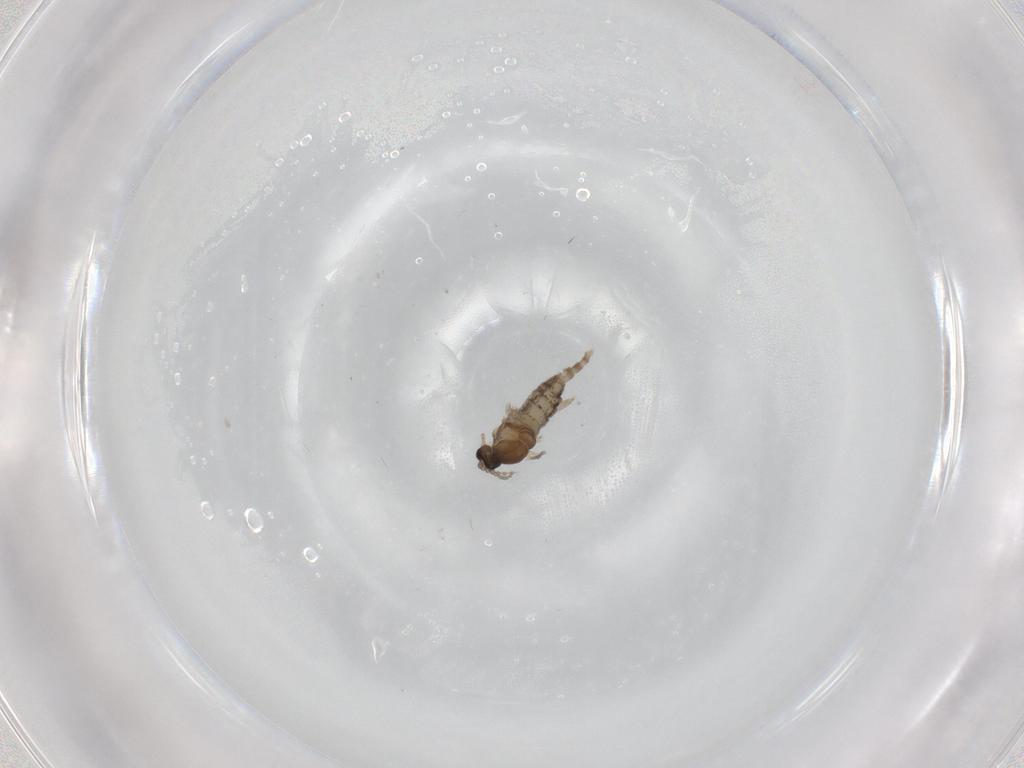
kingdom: Animalia
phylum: Arthropoda
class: Insecta
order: Diptera
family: Cecidomyiidae
